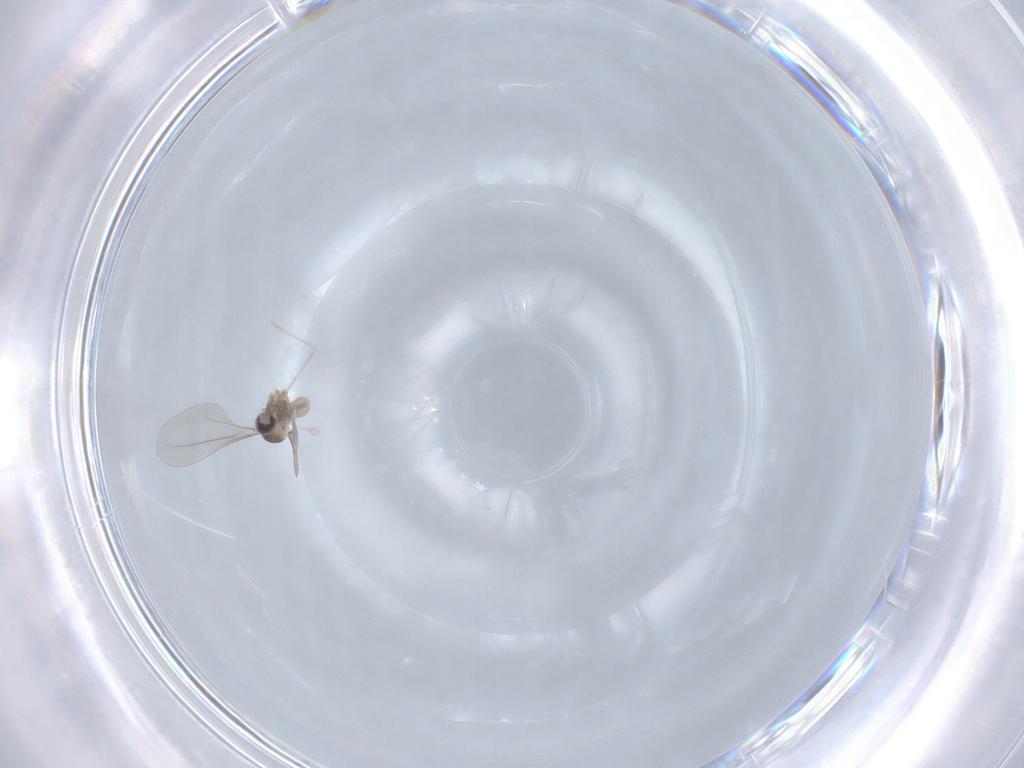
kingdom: Animalia
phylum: Arthropoda
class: Insecta
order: Diptera
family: Cecidomyiidae
